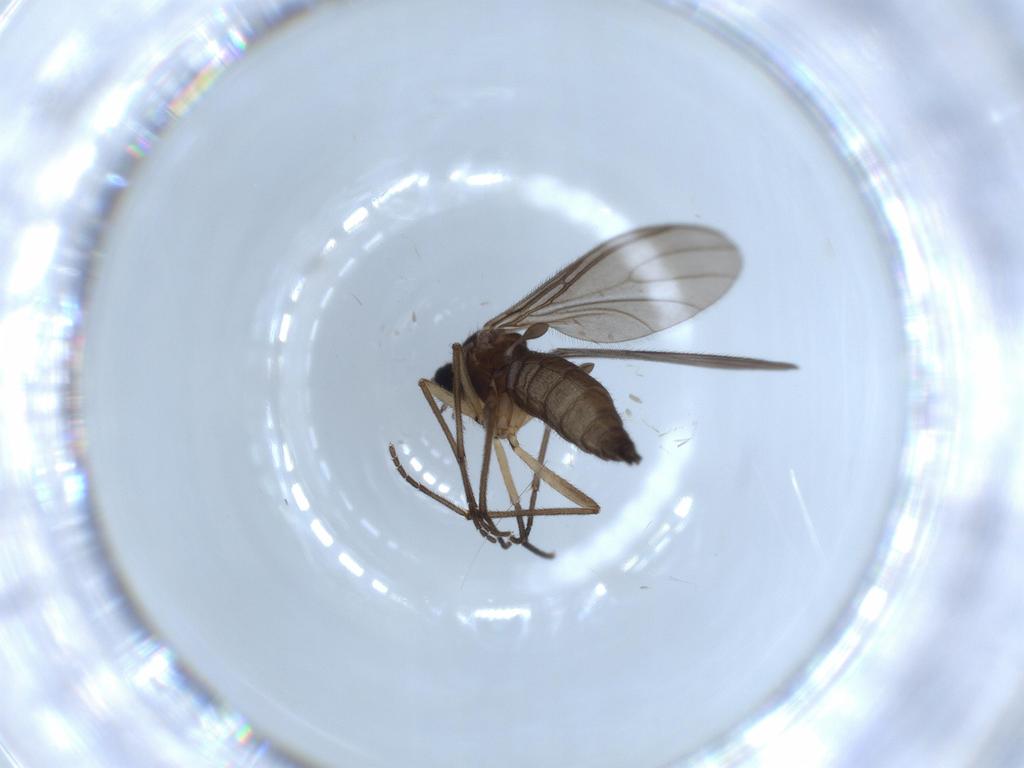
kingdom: Animalia
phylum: Arthropoda
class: Insecta
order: Diptera
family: Sciaridae
